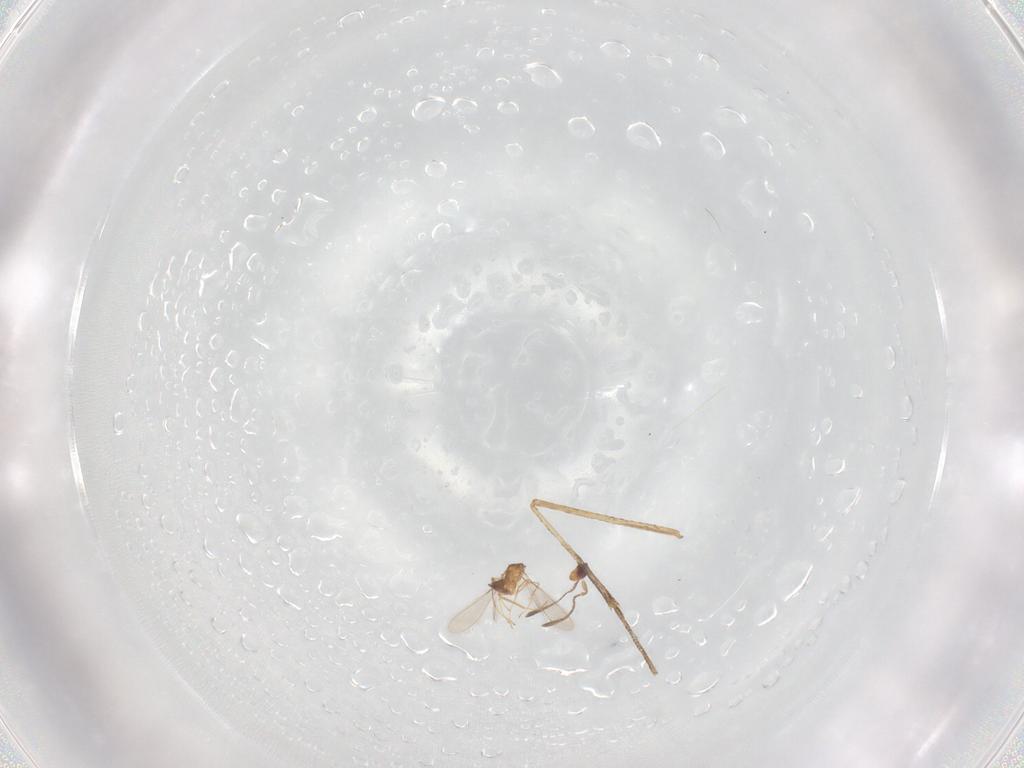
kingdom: Animalia
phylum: Arthropoda
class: Insecta
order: Hymenoptera
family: Mymaridae
